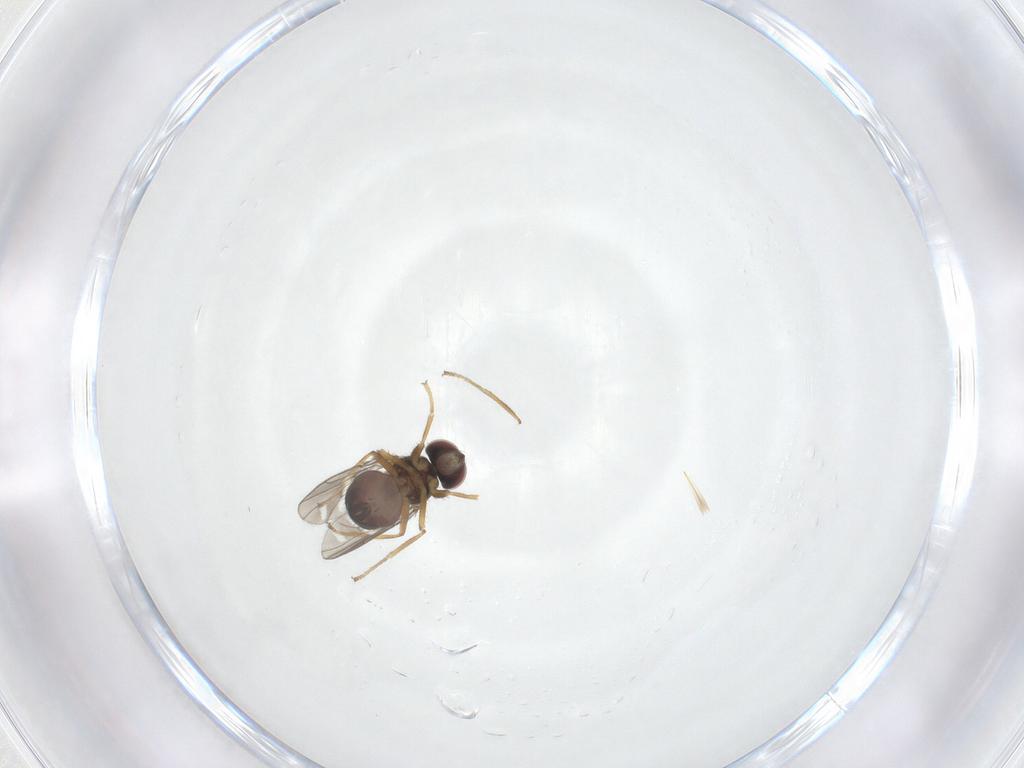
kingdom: Animalia
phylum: Arthropoda
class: Insecta
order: Diptera
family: Ephydridae
